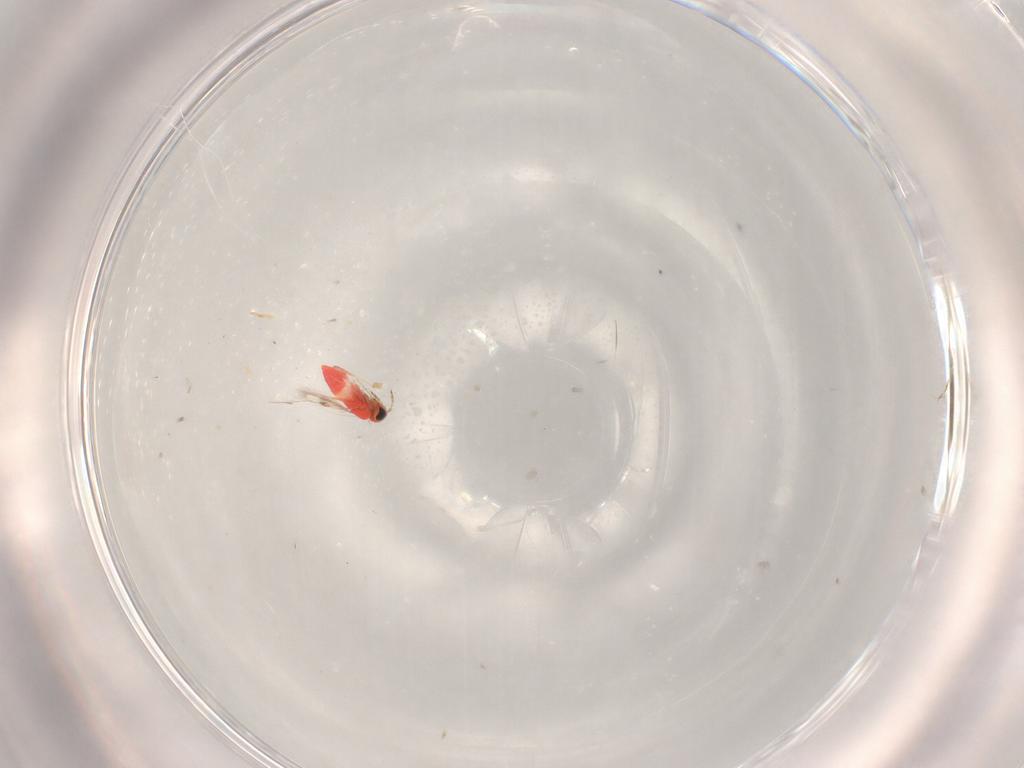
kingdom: Animalia
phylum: Arthropoda
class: Insecta
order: Hymenoptera
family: Trichogrammatidae
